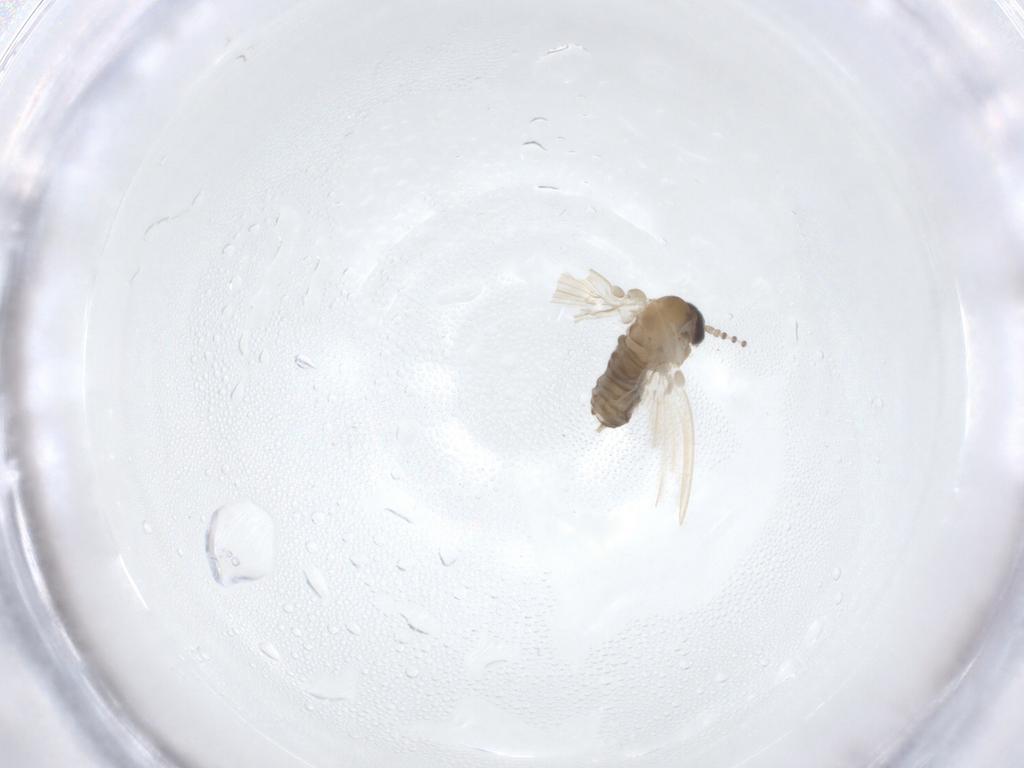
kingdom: Animalia
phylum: Arthropoda
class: Insecta
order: Diptera
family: Psychodidae
